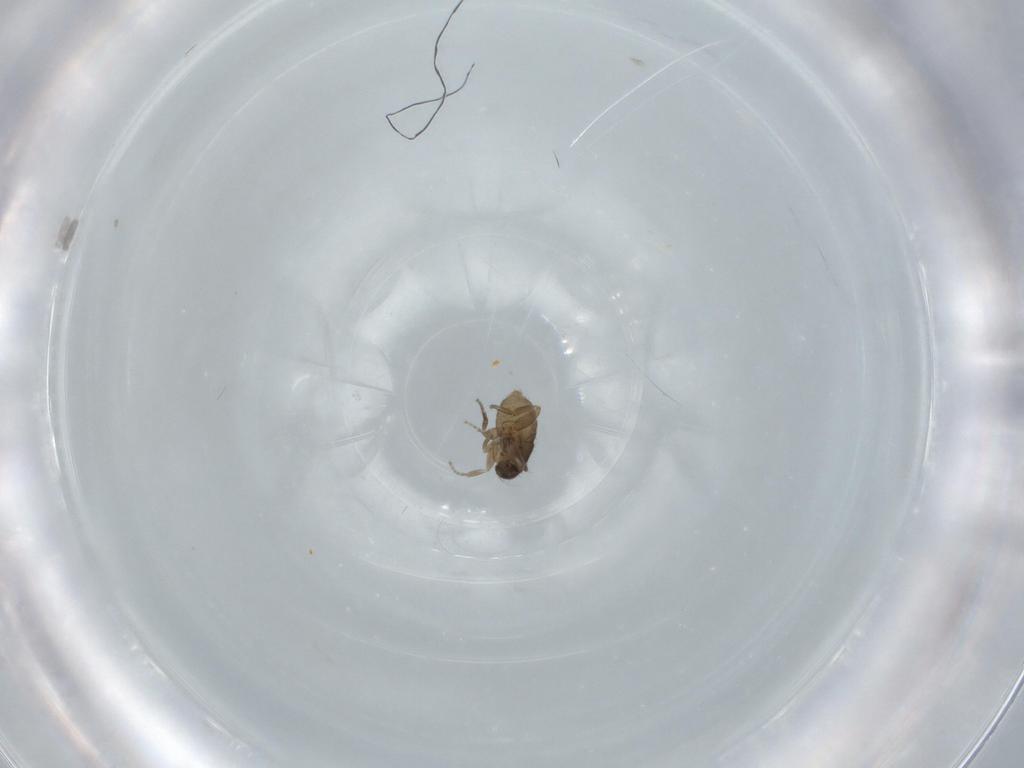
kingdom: Animalia
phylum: Arthropoda
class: Insecta
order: Diptera
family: Phoridae
